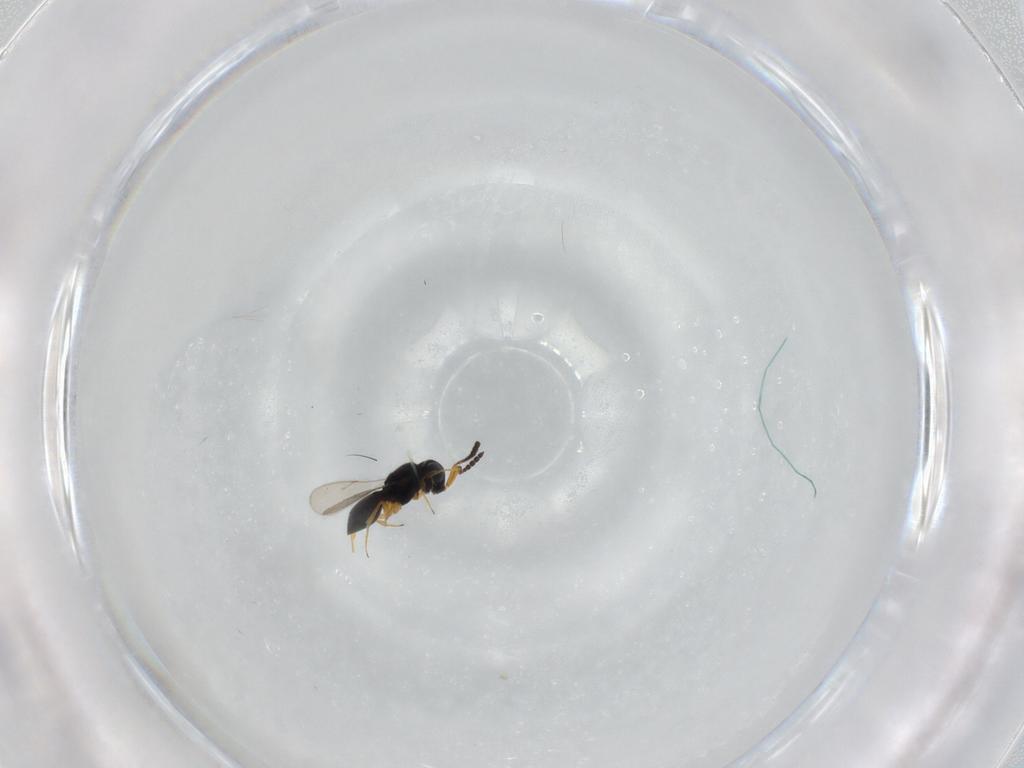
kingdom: Animalia
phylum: Arthropoda
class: Insecta
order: Hymenoptera
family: Scelionidae
